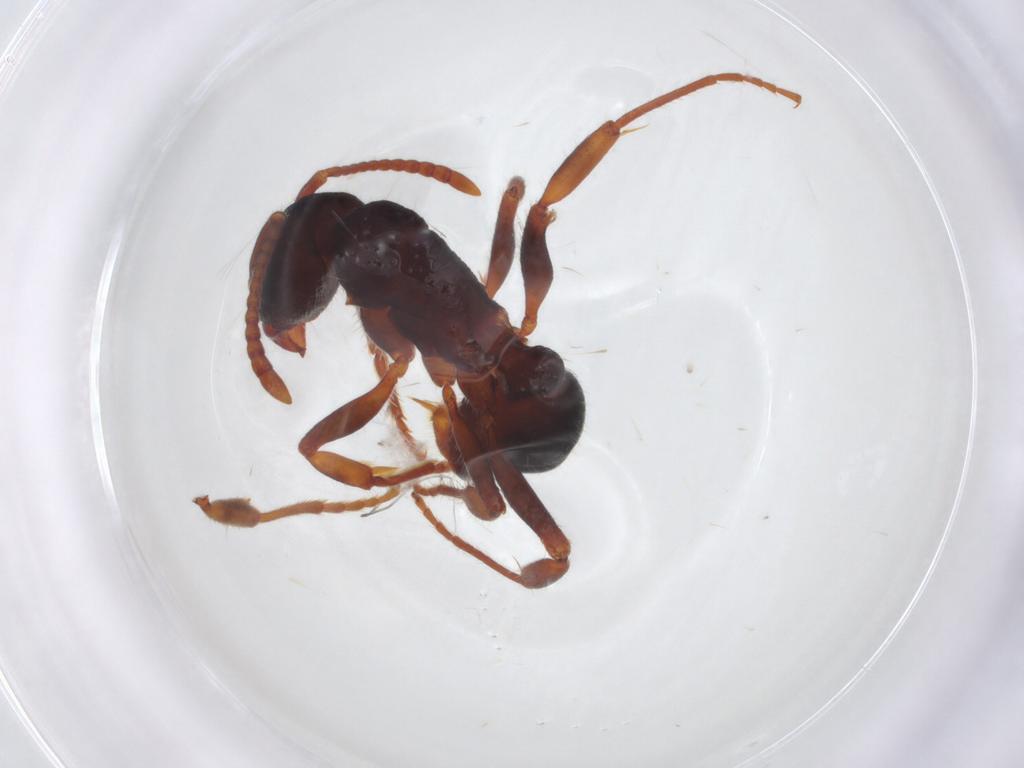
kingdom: Animalia
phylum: Arthropoda
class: Insecta
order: Hymenoptera
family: Formicidae
